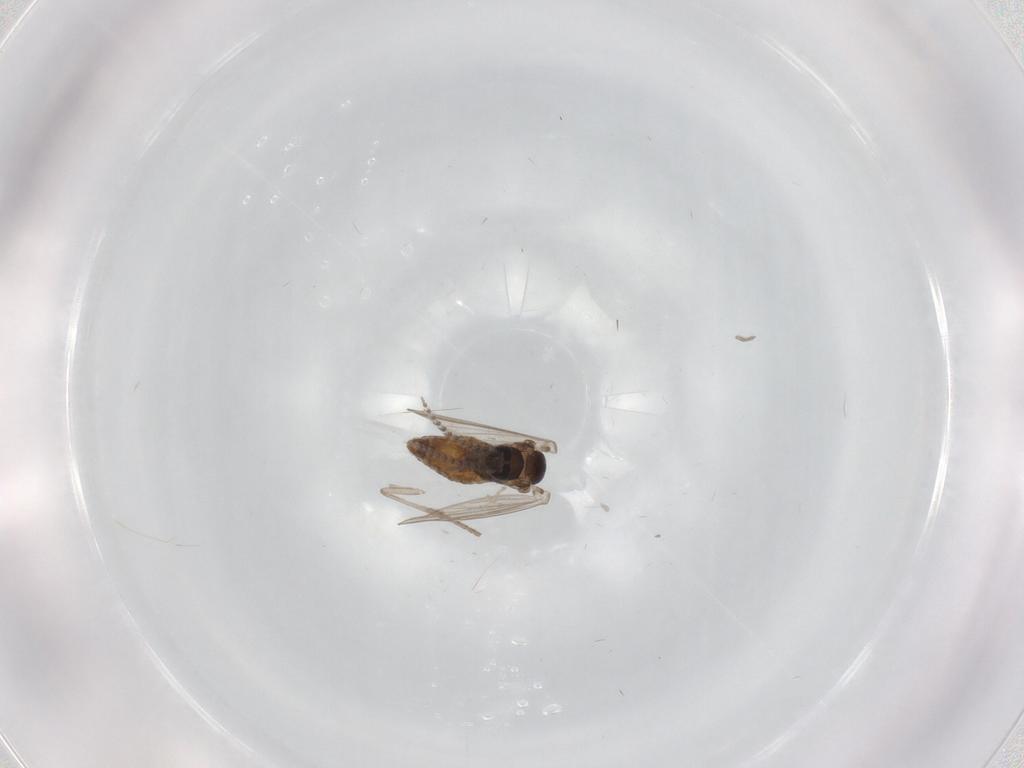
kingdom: Animalia
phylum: Arthropoda
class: Insecta
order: Diptera
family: Psychodidae
